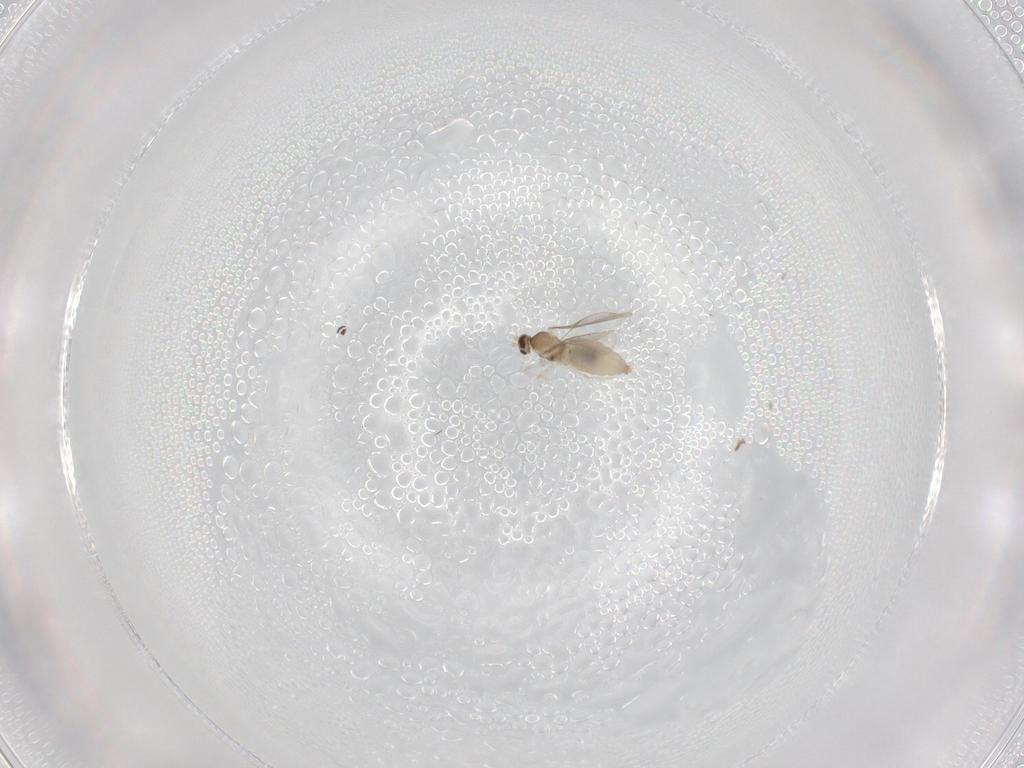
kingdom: Animalia
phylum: Arthropoda
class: Insecta
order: Diptera
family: Cecidomyiidae
